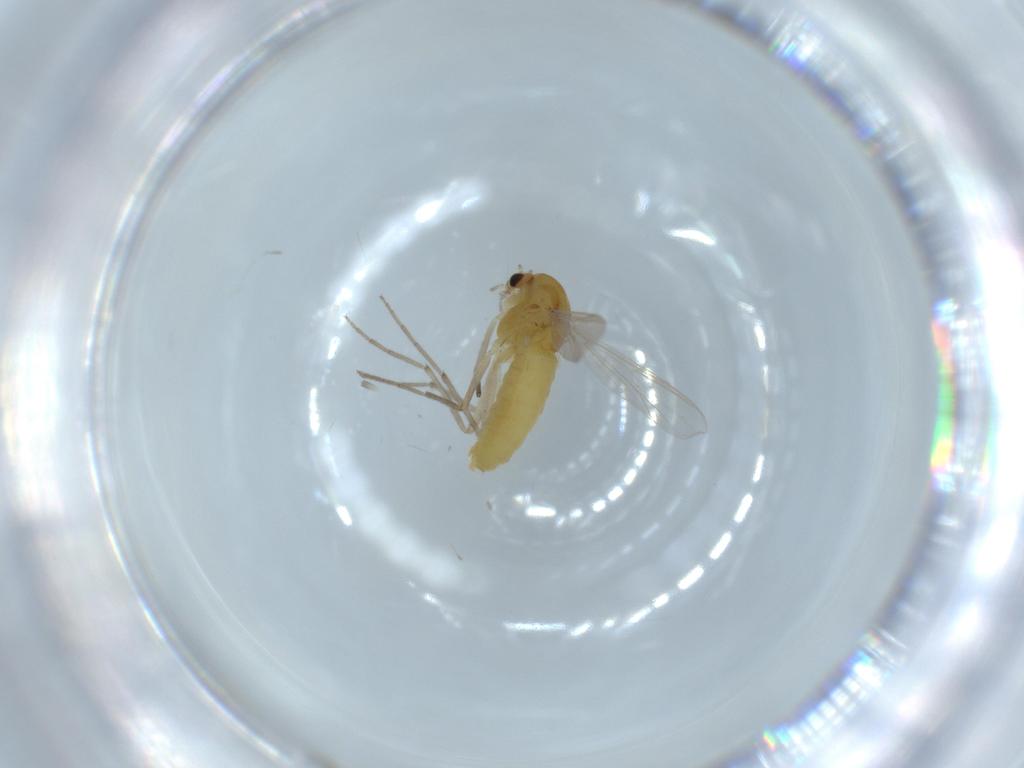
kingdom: Animalia
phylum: Arthropoda
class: Insecta
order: Diptera
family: Chironomidae
